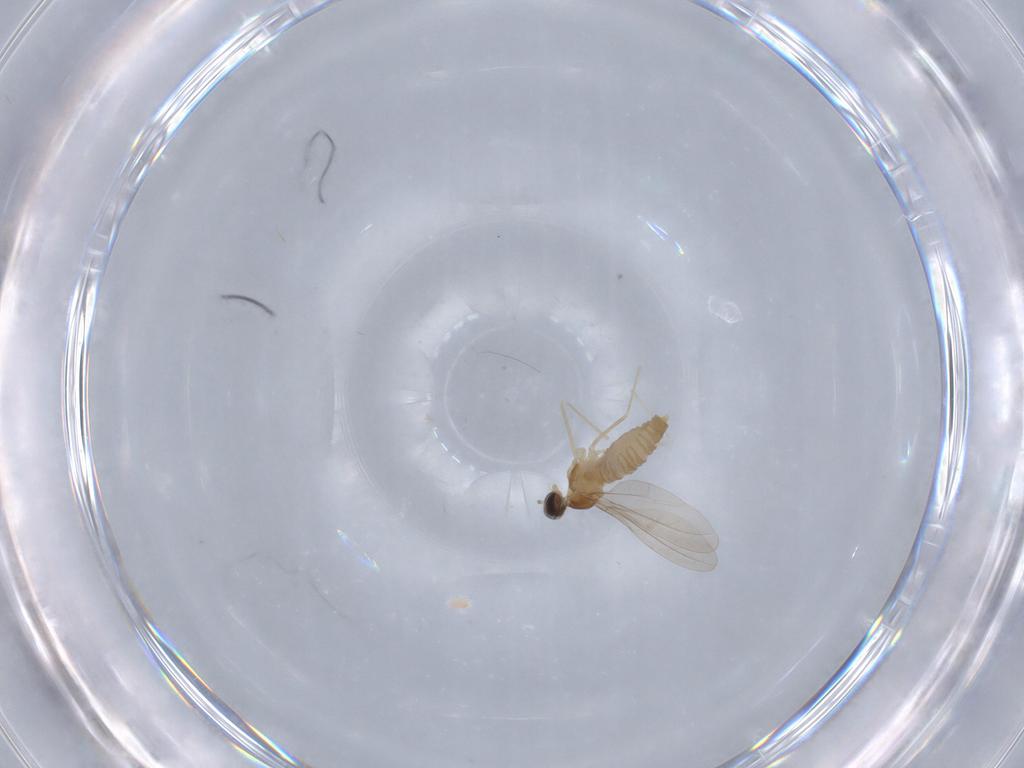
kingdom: Animalia
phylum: Arthropoda
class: Insecta
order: Diptera
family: Cecidomyiidae
